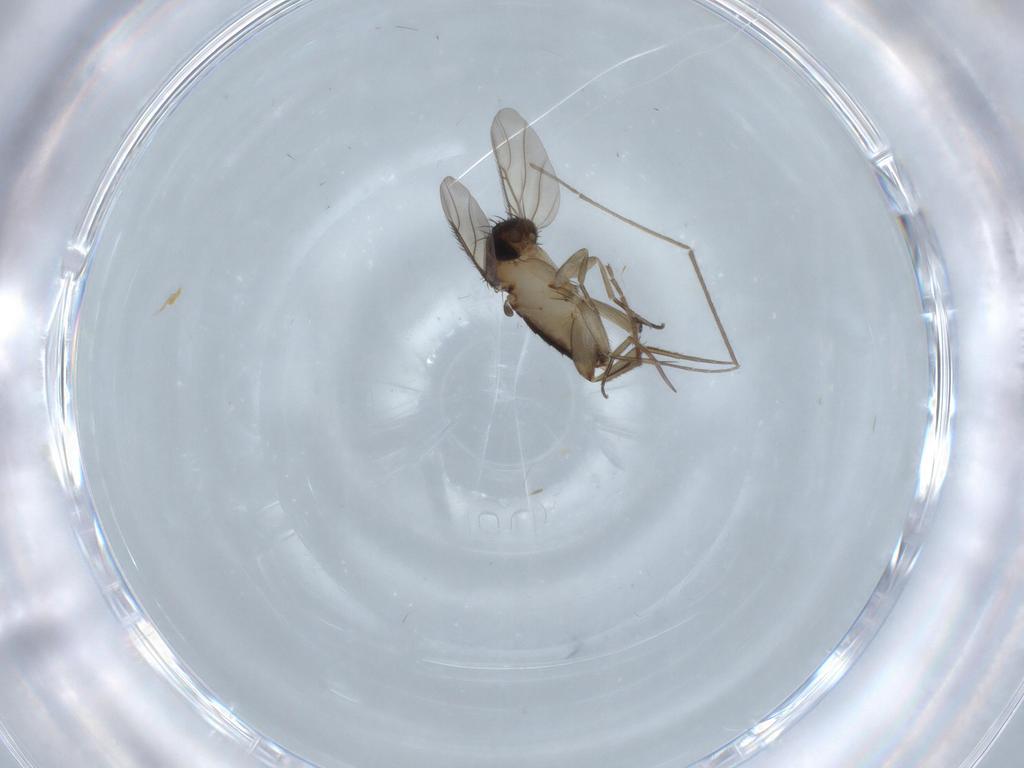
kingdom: Animalia
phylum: Arthropoda
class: Insecta
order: Diptera
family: Phoridae
